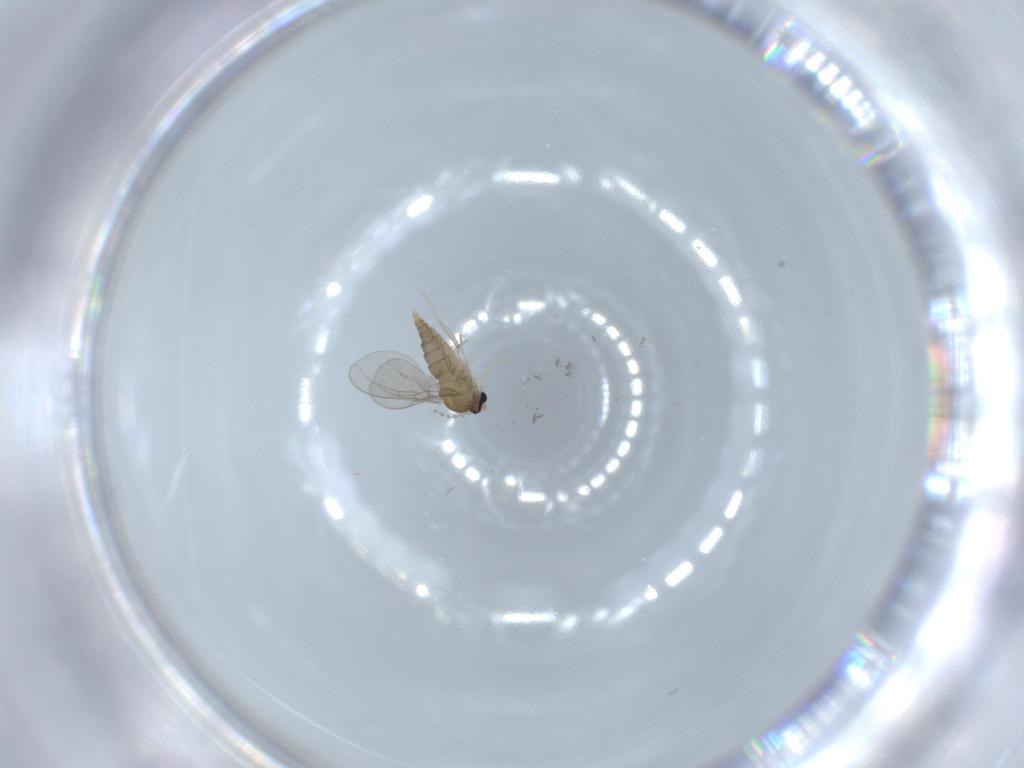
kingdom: Animalia
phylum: Arthropoda
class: Insecta
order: Diptera
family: Cecidomyiidae
